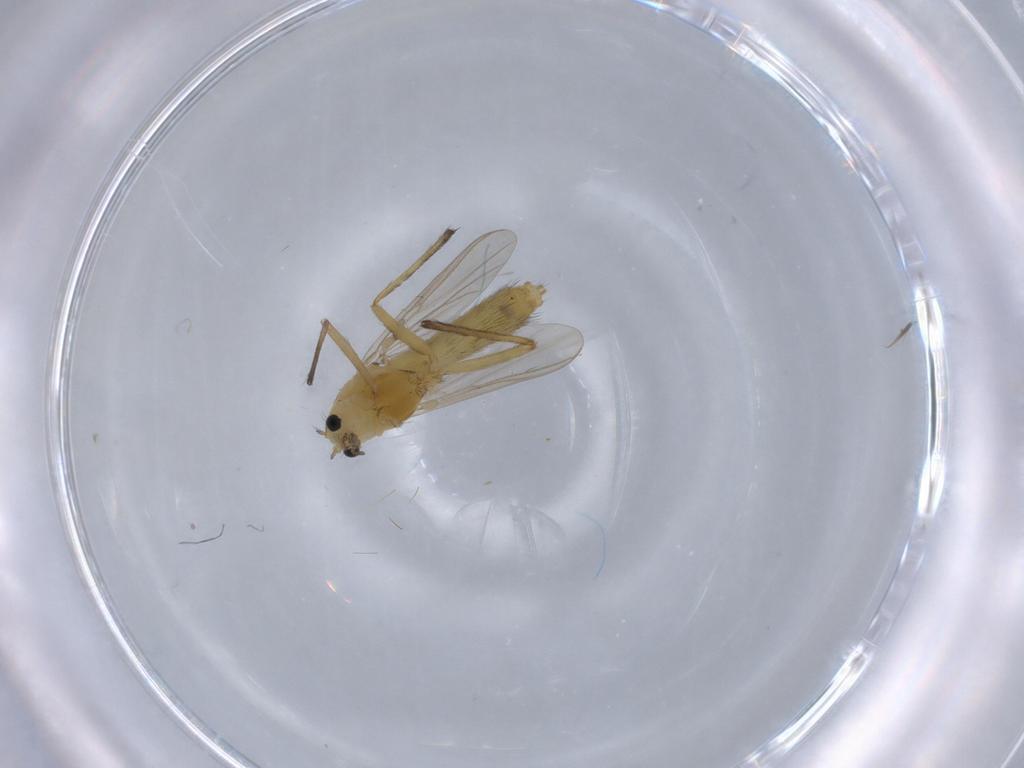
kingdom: Animalia
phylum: Arthropoda
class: Insecta
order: Diptera
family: Chironomidae
